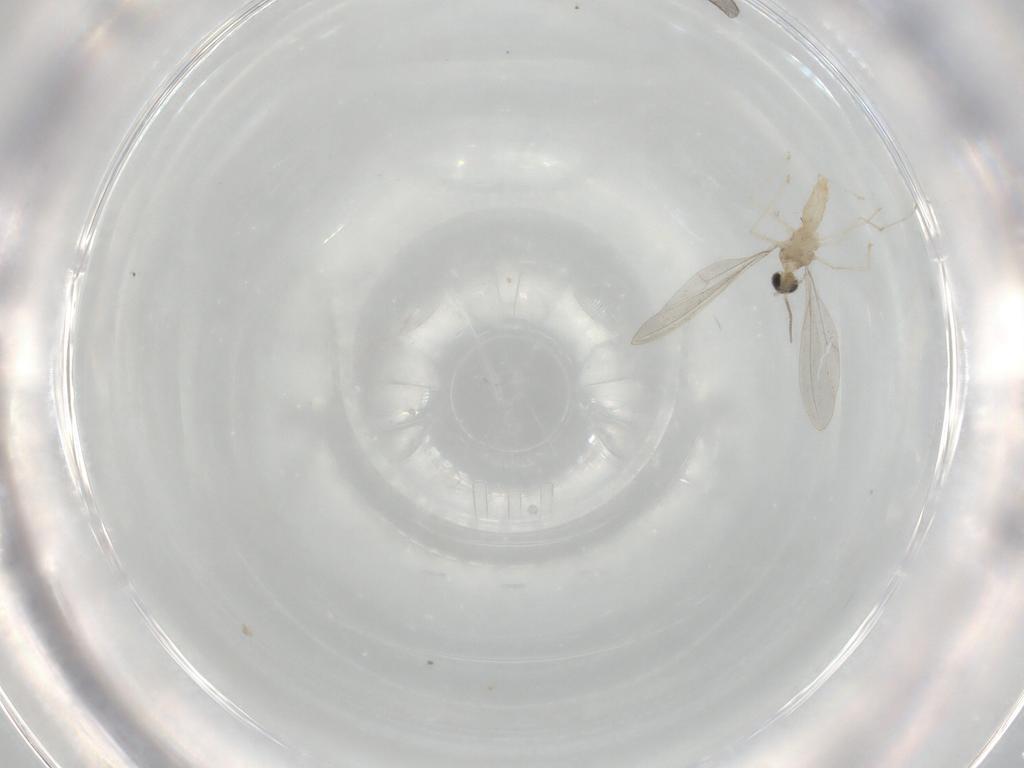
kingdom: Animalia
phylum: Arthropoda
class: Insecta
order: Diptera
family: Cecidomyiidae
